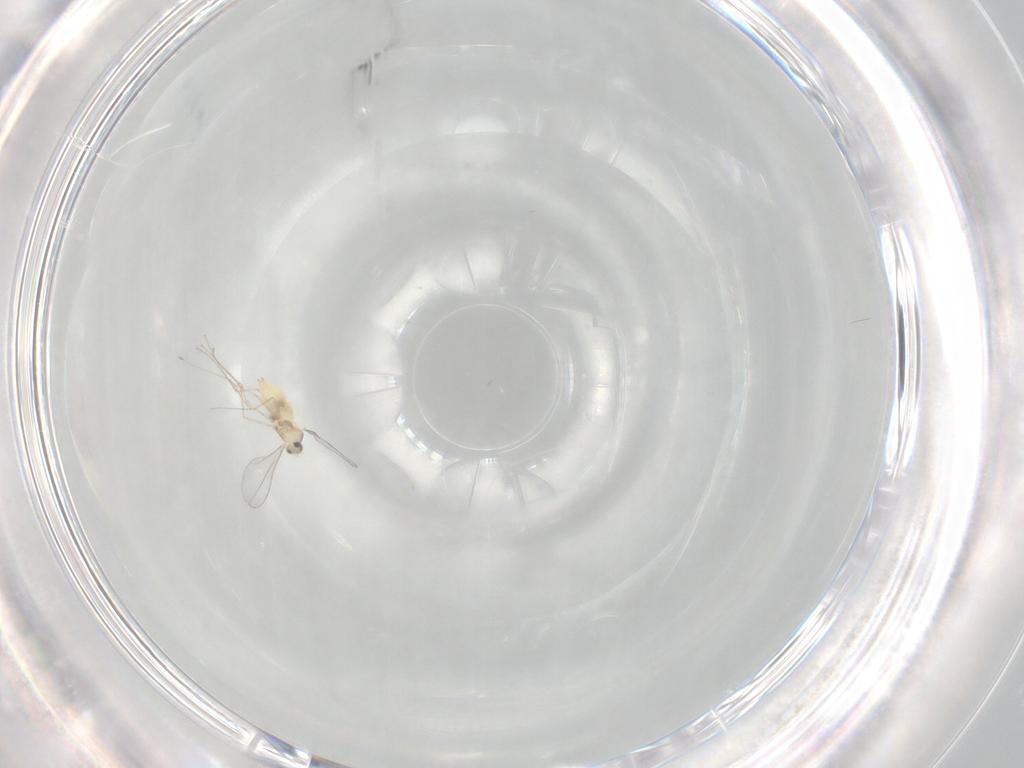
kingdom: Animalia
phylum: Arthropoda
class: Insecta
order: Diptera
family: Cecidomyiidae
